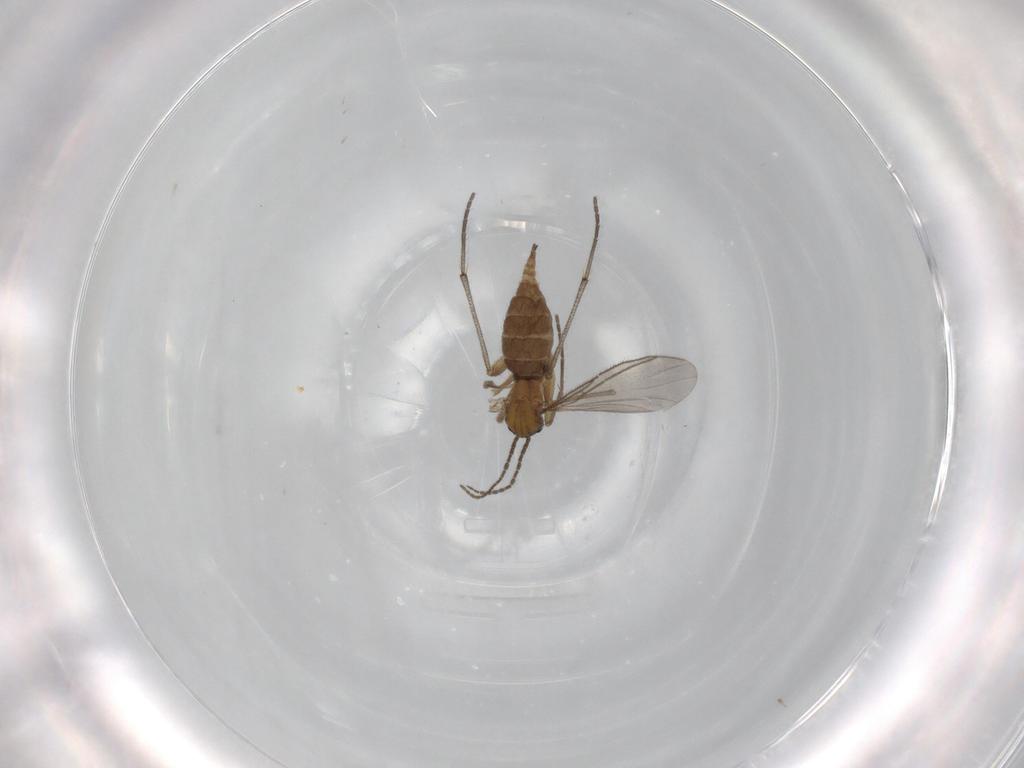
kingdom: Animalia
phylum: Arthropoda
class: Insecta
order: Diptera
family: Sciaridae
